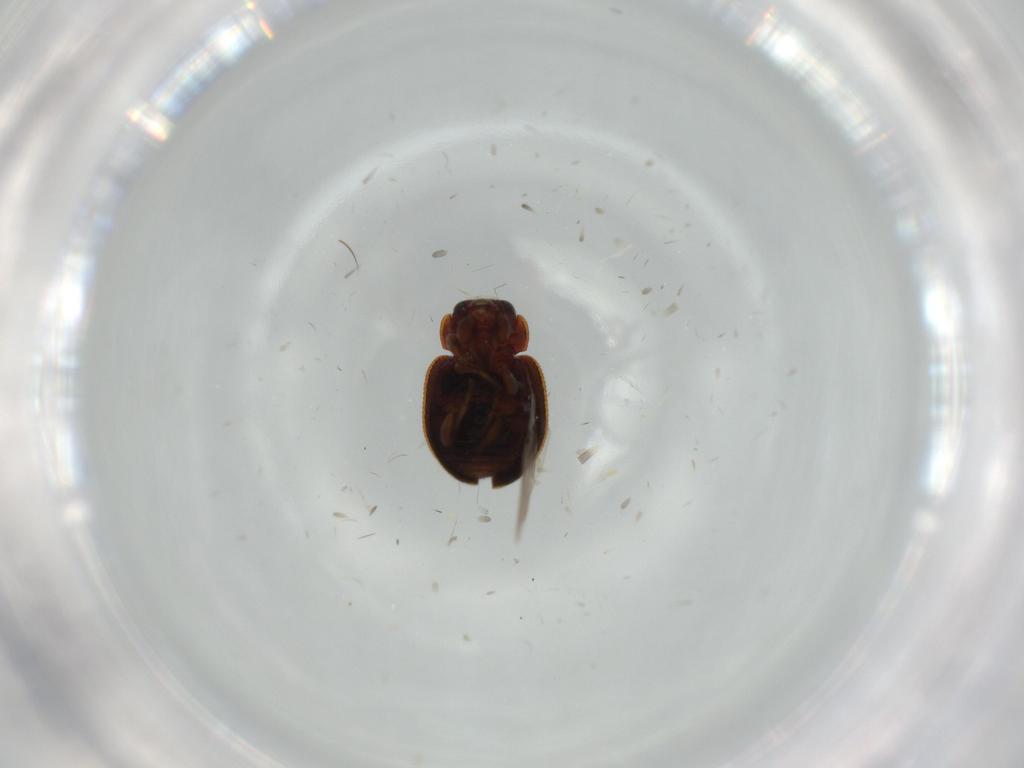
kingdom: Animalia
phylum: Arthropoda
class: Insecta
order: Coleoptera
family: Coccinellidae
